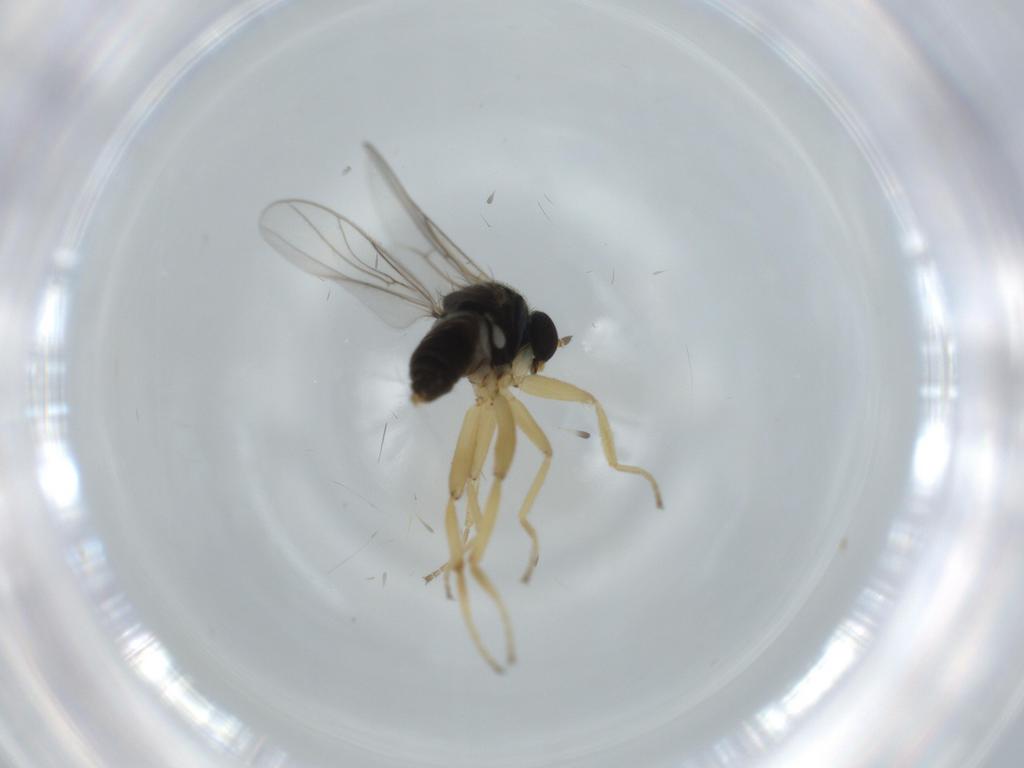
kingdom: Animalia
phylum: Arthropoda
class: Insecta
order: Diptera
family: Hybotidae
